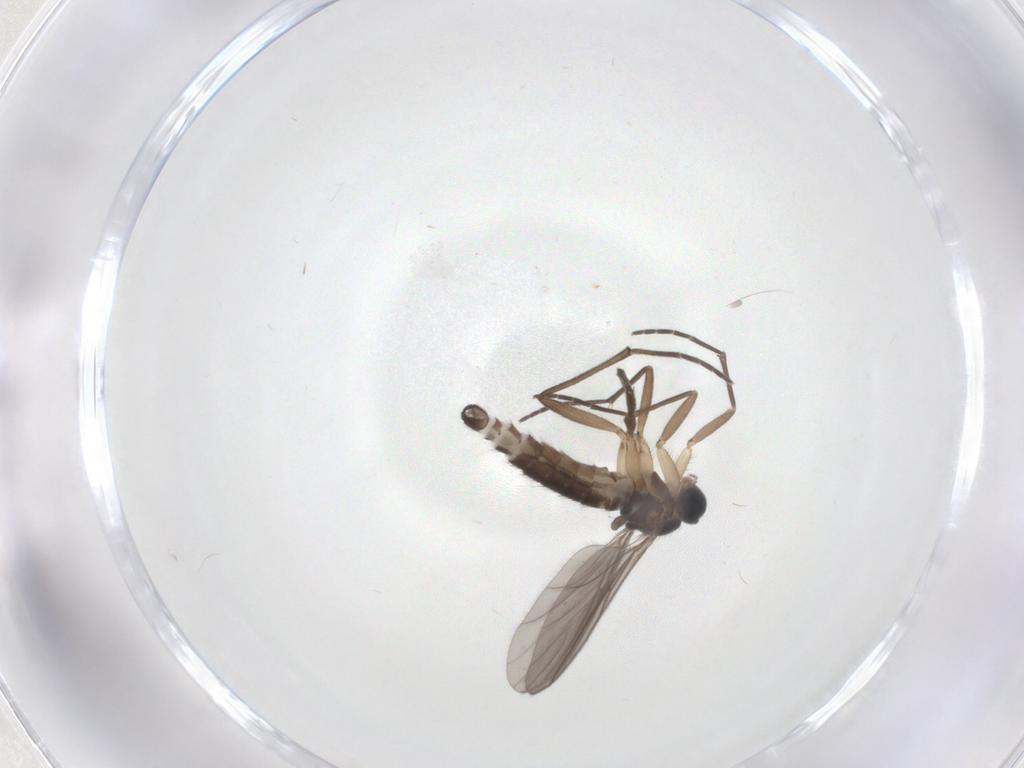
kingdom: Animalia
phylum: Arthropoda
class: Insecta
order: Diptera
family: Sciaridae
